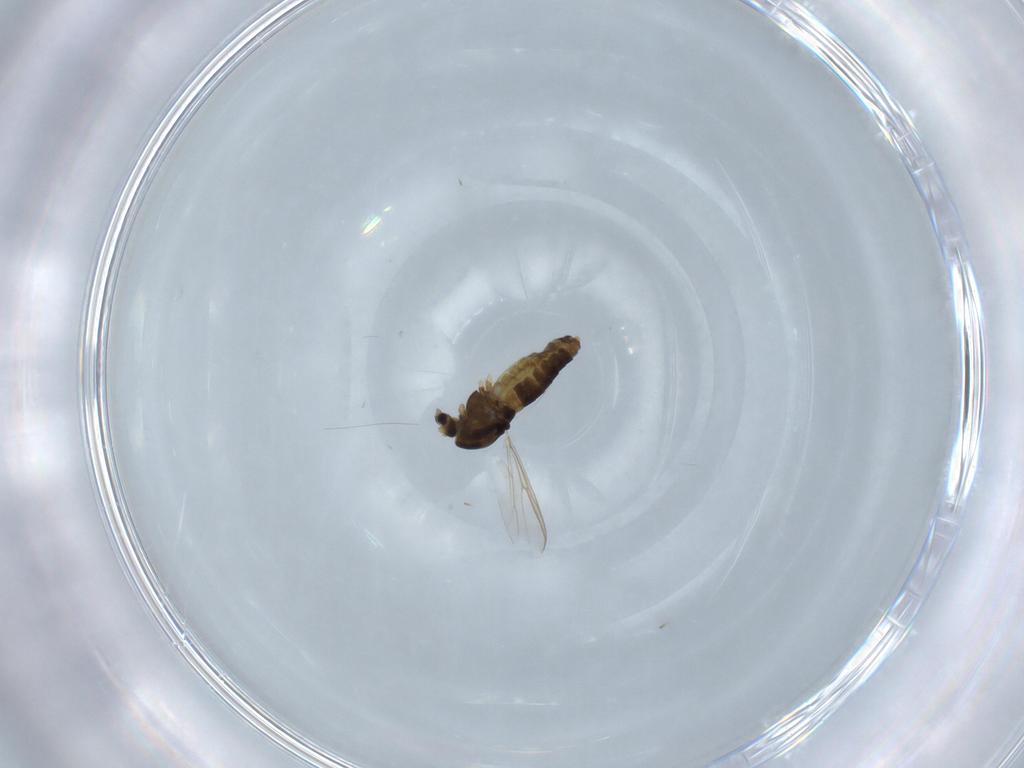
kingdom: Animalia
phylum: Arthropoda
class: Insecta
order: Diptera
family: Chironomidae
